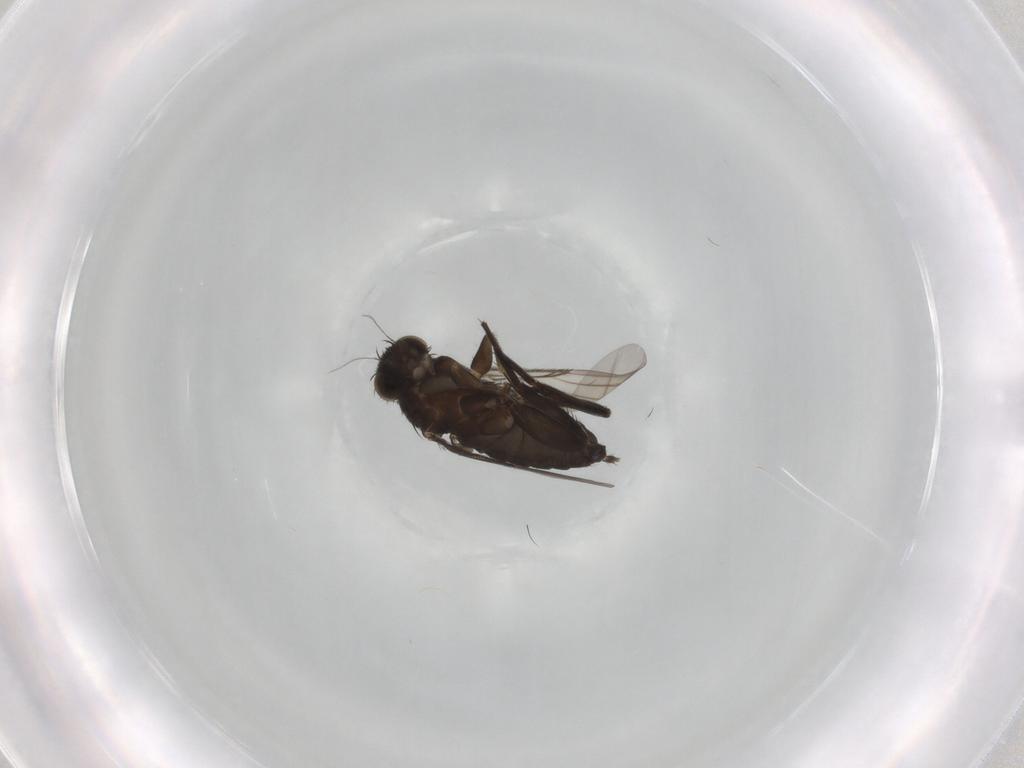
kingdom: Animalia
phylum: Arthropoda
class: Insecta
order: Diptera
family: Phoridae
